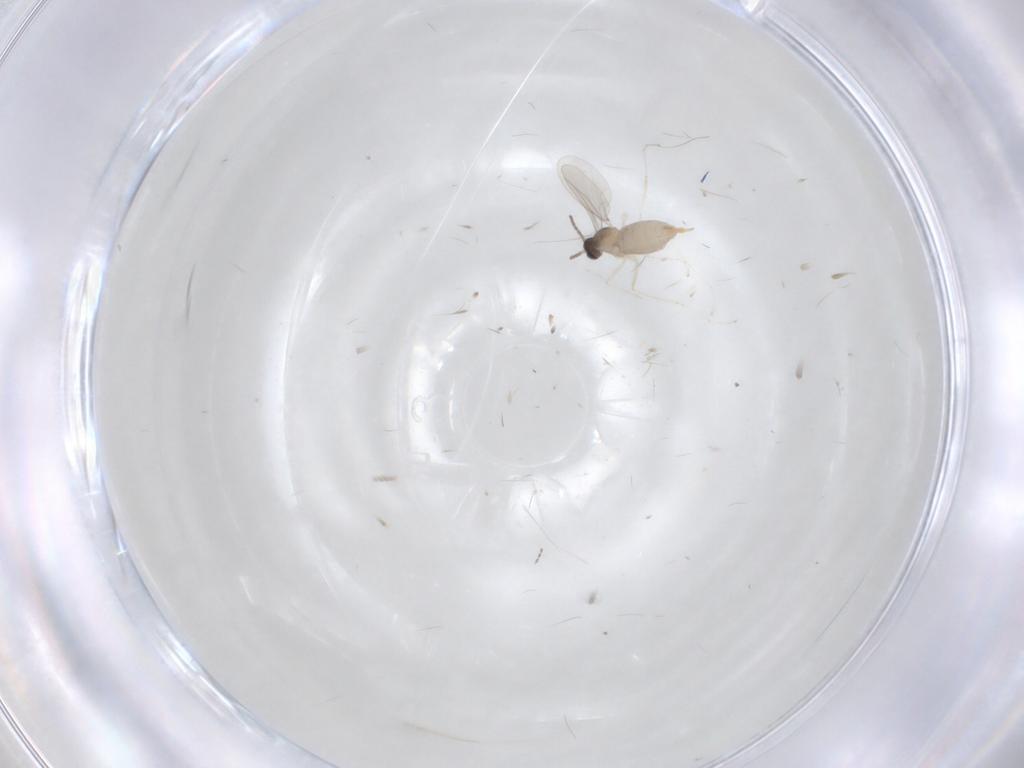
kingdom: Animalia
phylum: Arthropoda
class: Insecta
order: Diptera
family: Cecidomyiidae
